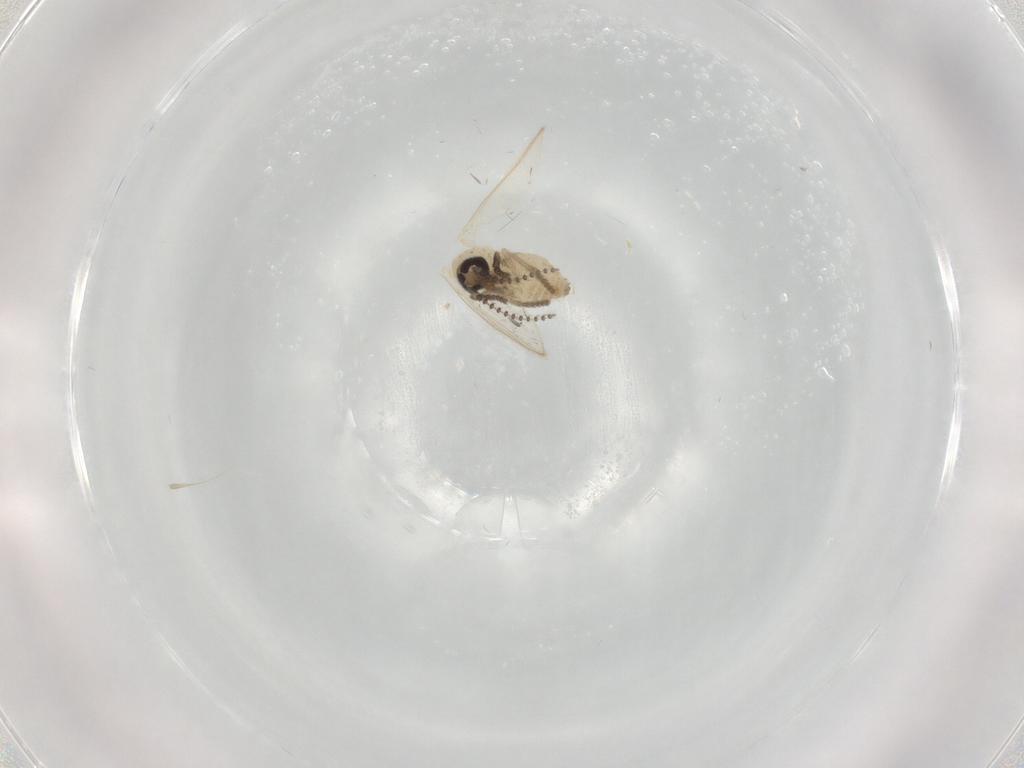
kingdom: Animalia
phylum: Arthropoda
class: Insecta
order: Diptera
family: Psychodidae
